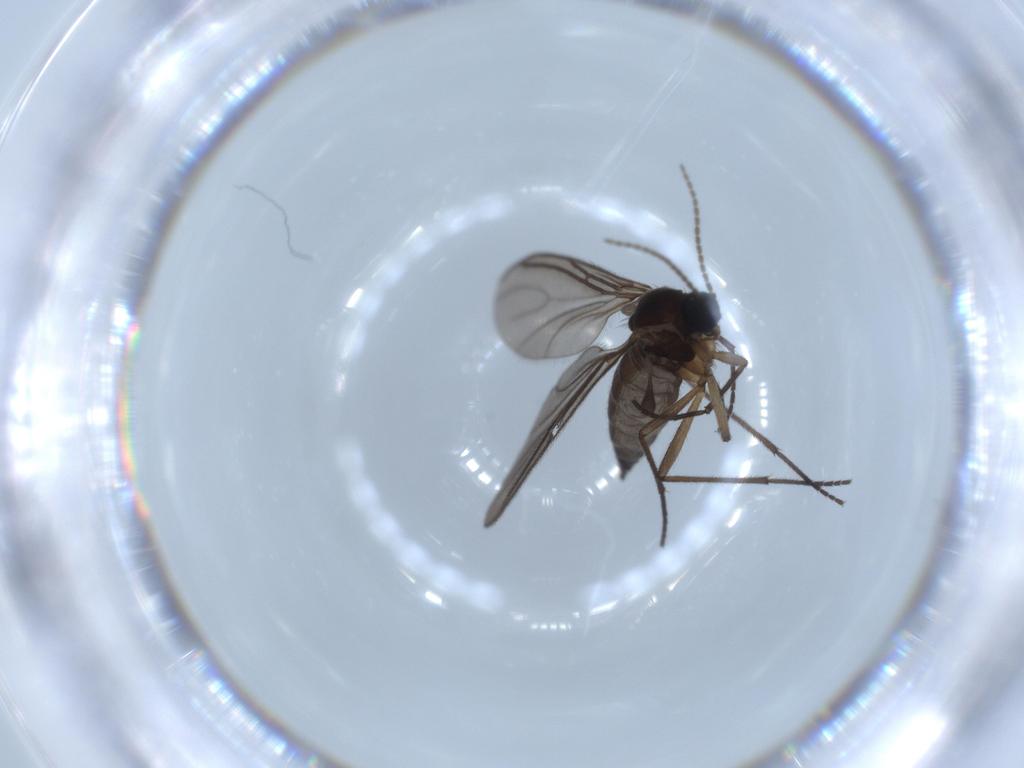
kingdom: Animalia
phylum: Arthropoda
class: Insecta
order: Diptera
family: Sciaridae
